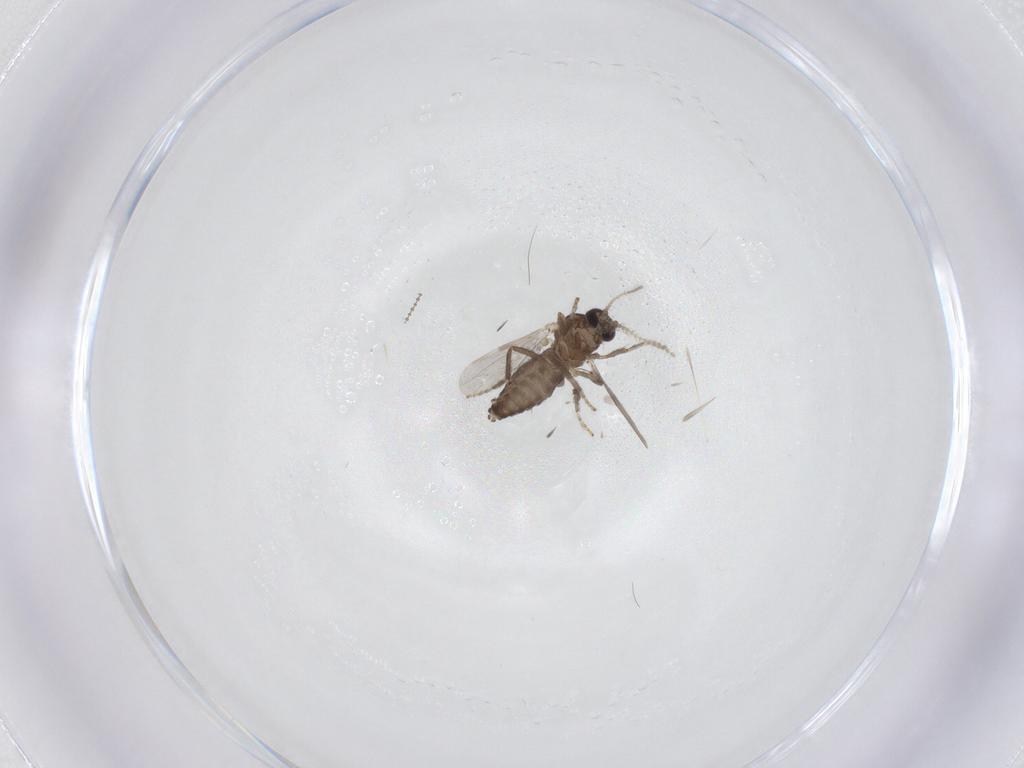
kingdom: Animalia
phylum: Arthropoda
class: Insecta
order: Diptera
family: Ceratopogonidae
